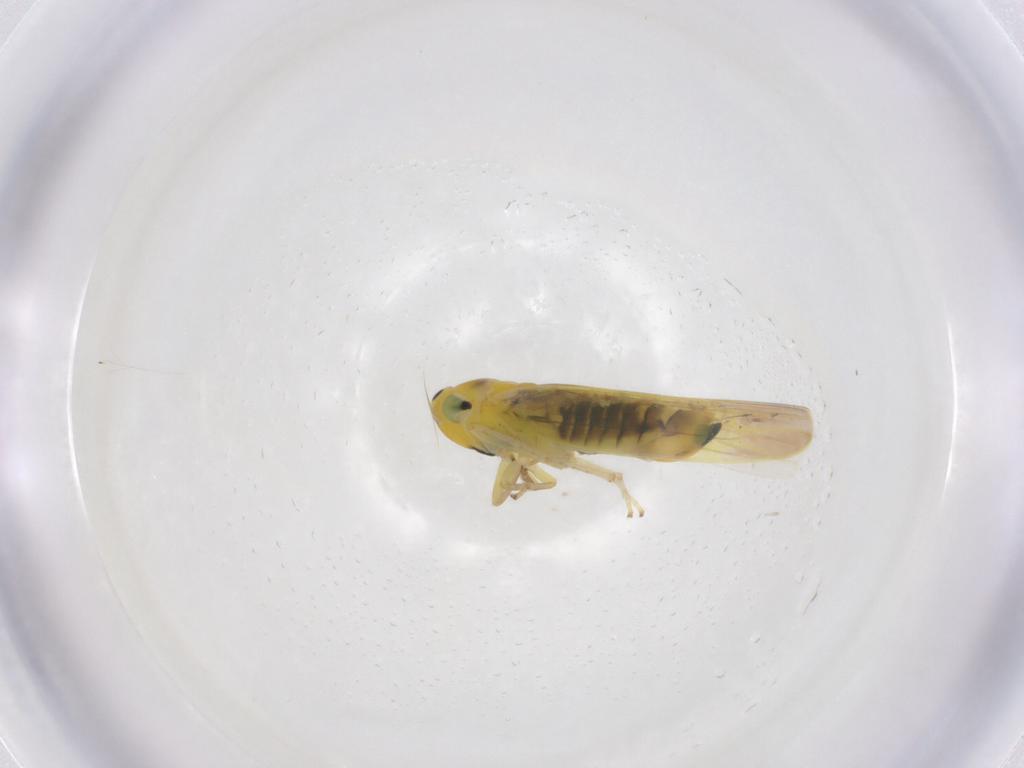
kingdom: Animalia
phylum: Arthropoda
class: Insecta
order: Hemiptera
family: Cicadellidae
